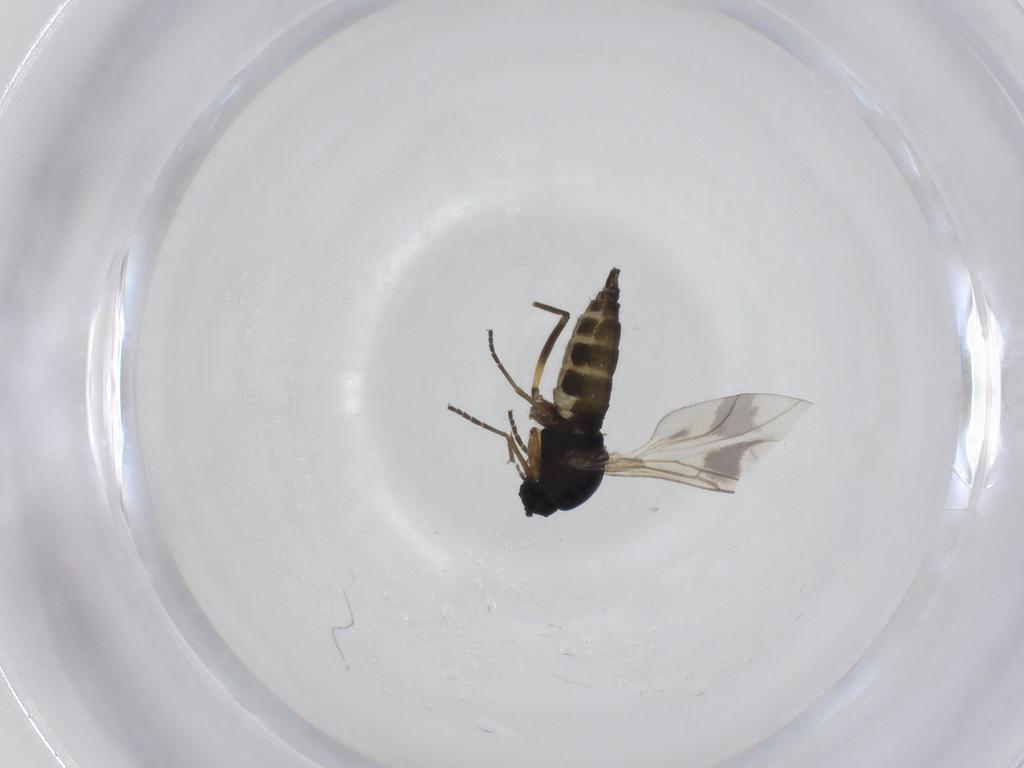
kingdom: Animalia
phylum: Arthropoda
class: Insecta
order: Diptera
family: Sciaridae
